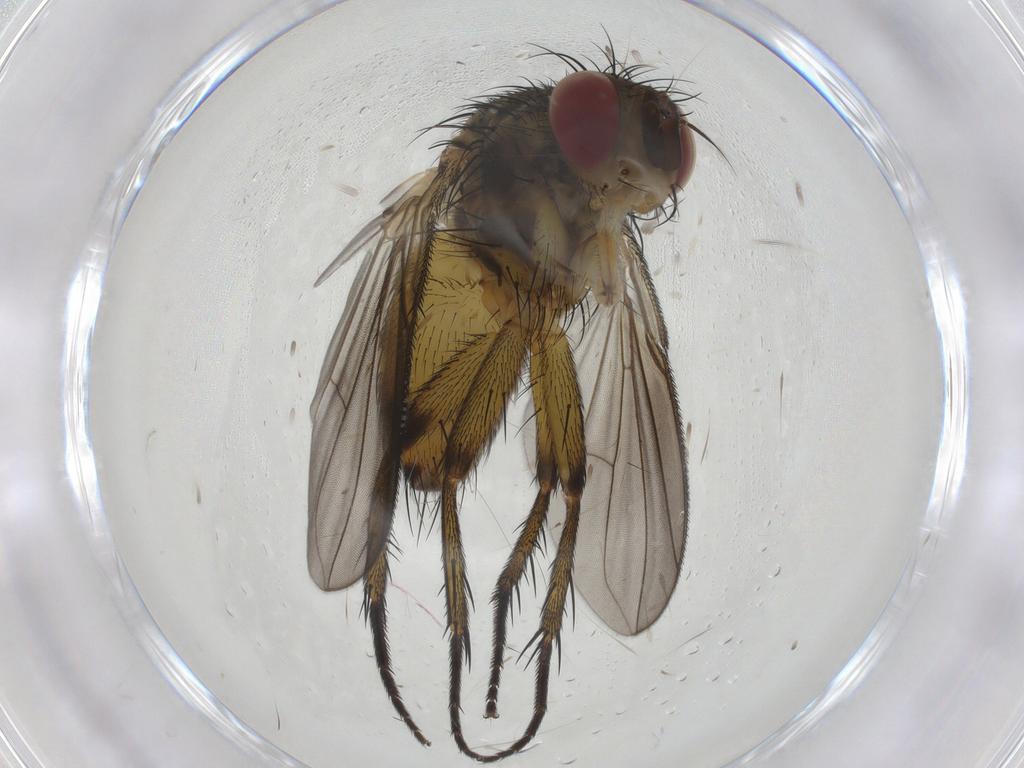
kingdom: Animalia
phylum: Arthropoda
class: Insecta
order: Diptera
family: Tachinidae
